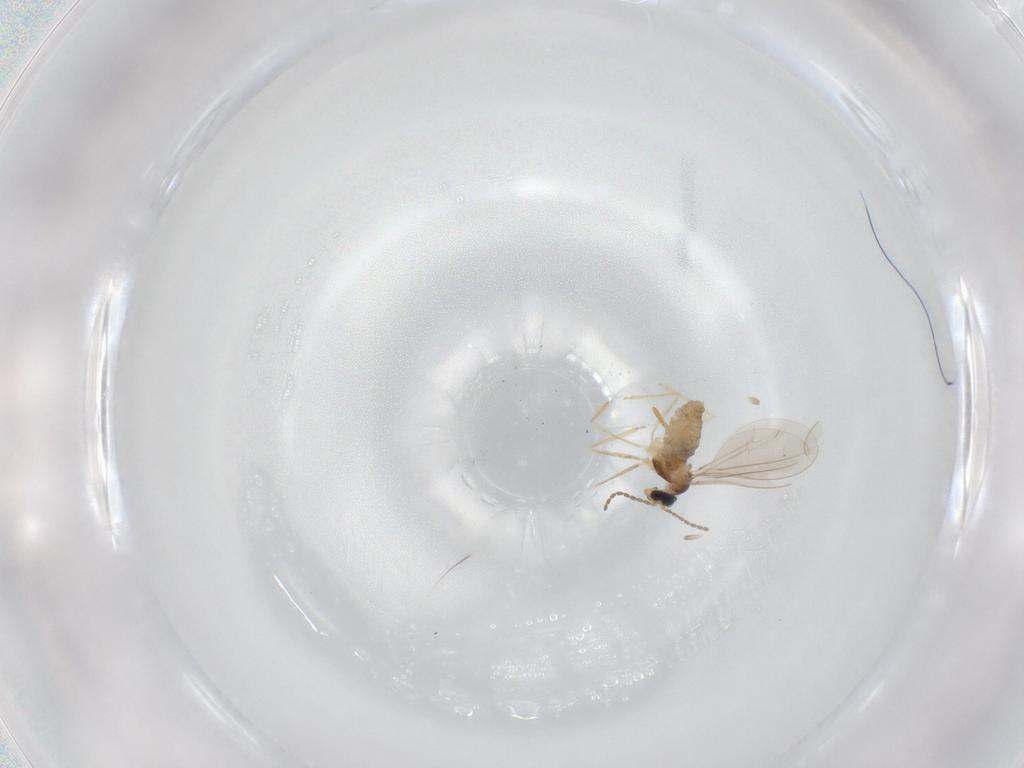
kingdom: Animalia
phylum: Arthropoda
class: Insecta
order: Diptera
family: Cecidomyiidae
